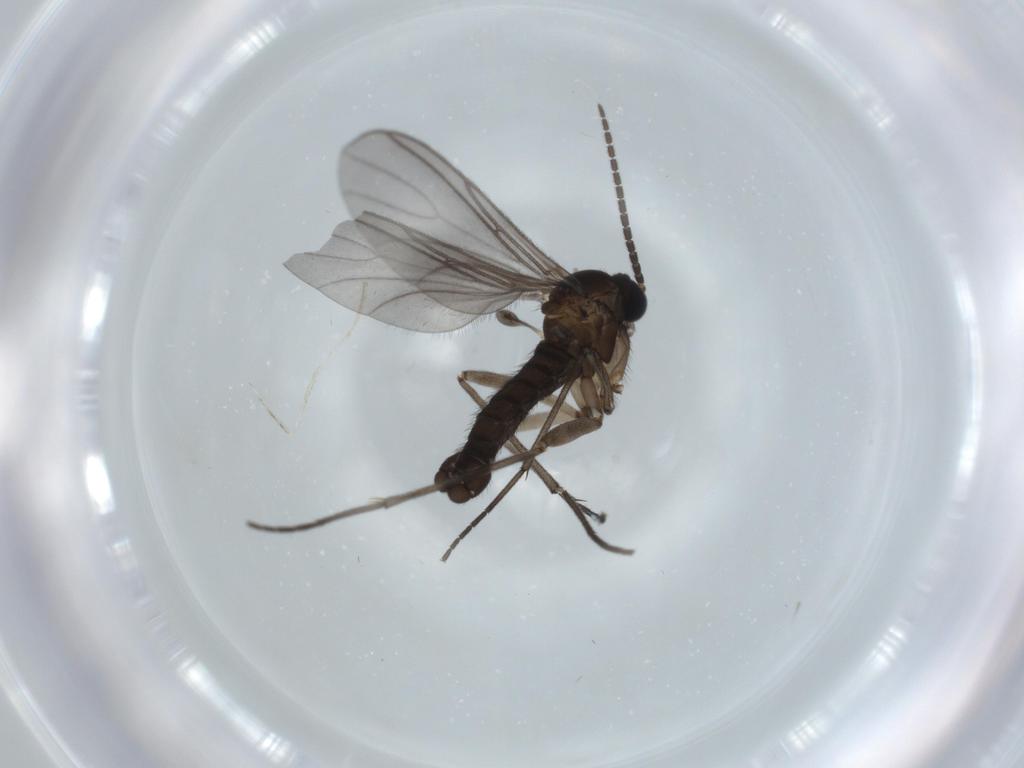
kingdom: Animalia
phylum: Arthropoda
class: Insecta
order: Diptera
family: Sciaridae
